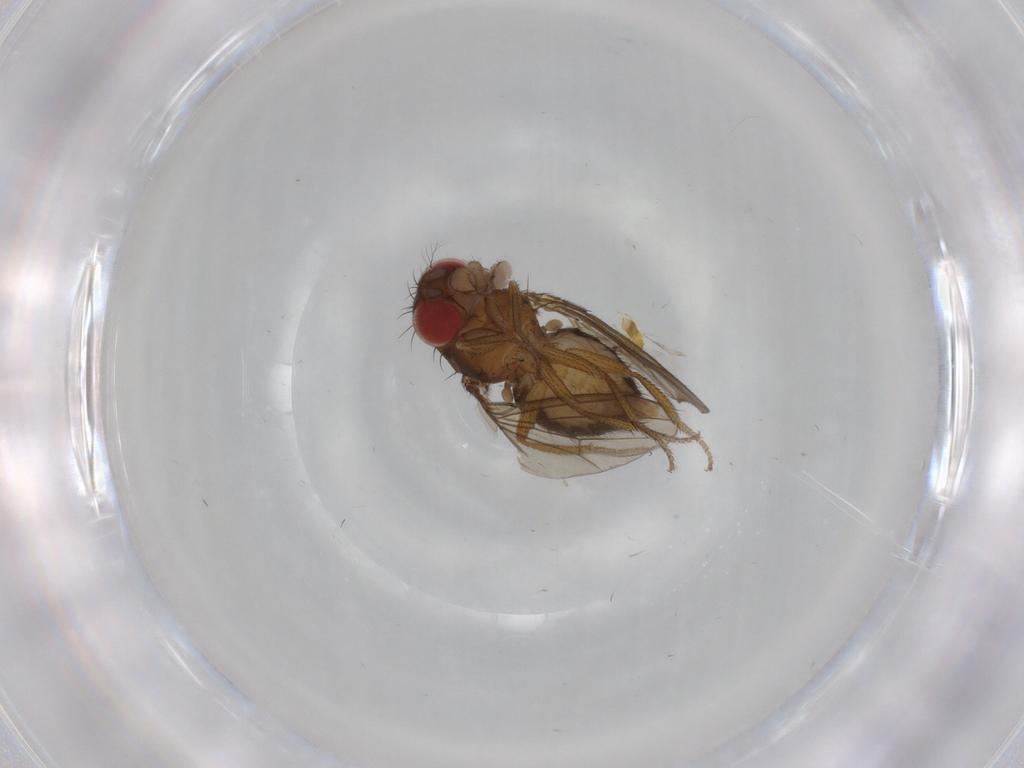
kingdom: Animalia
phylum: Arthropoda
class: Insecta
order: Diptera
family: Drosophilidae
